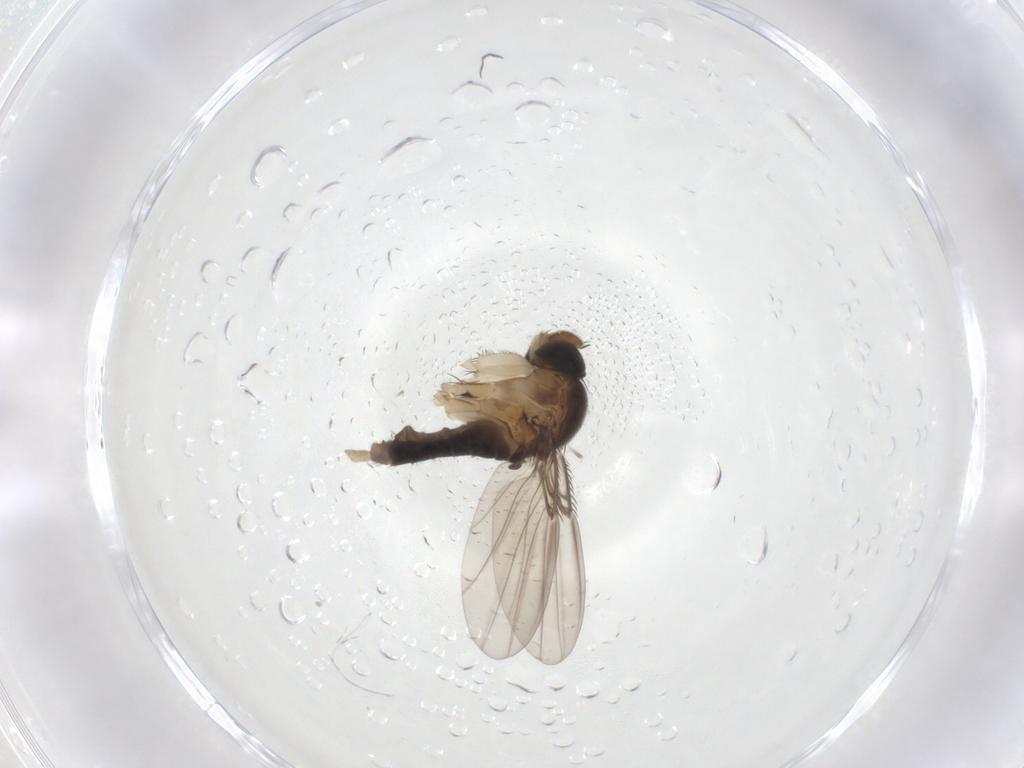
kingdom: Animalia
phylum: Arthropoda
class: Insecta
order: Diptera
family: Phoridae
